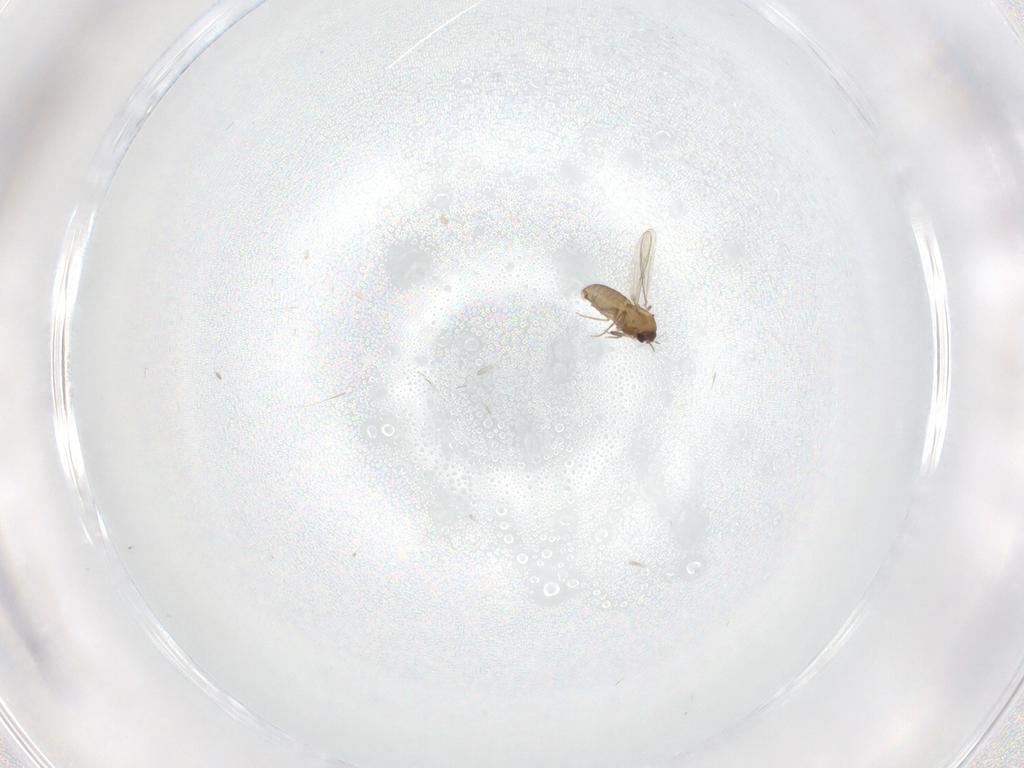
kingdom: Animalia
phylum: Arthropoda
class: Insecta
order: Diptera
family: Chironomidae
